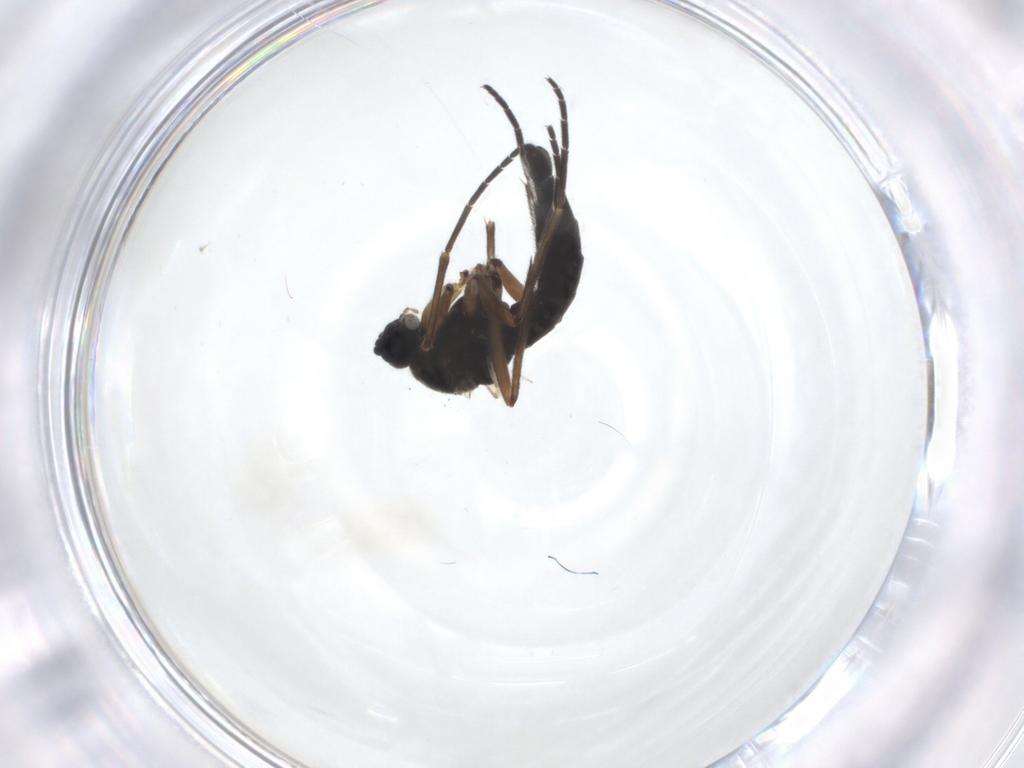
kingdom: Animalia
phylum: Arthropoda
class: Insecta
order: Diptera
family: Sciaridae
